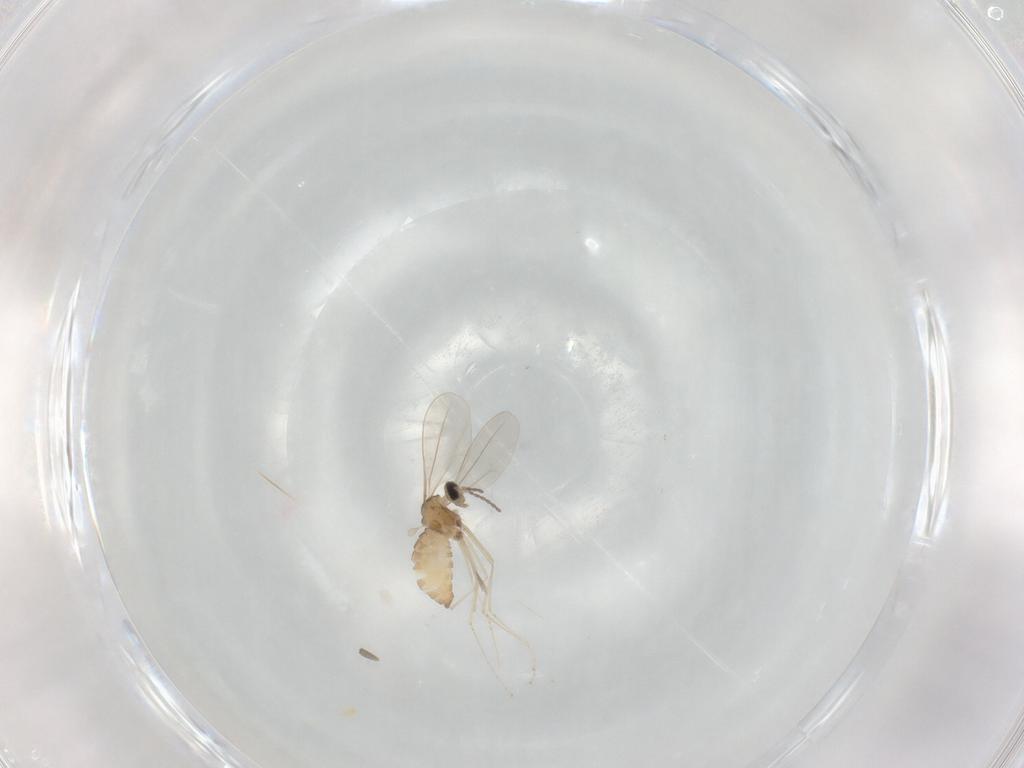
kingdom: Animalia
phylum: Arthropoda
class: Insecta
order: Diptera
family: Cecidomyiidae
